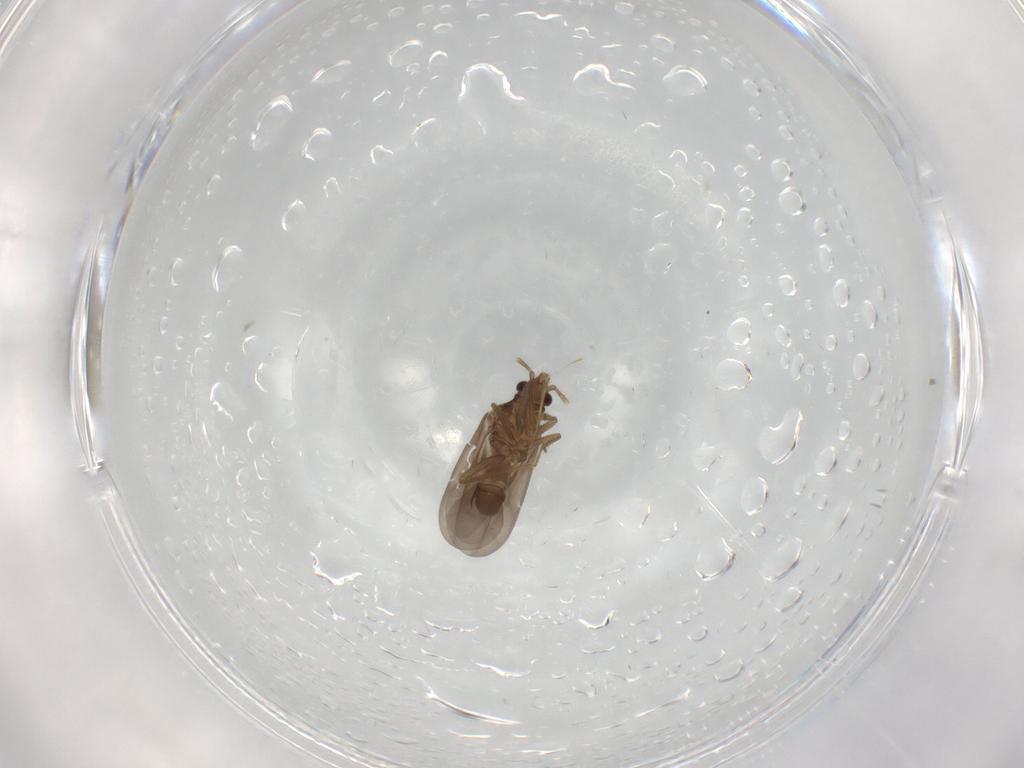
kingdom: Animalia
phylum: Arthropoda
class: Insecta
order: Hemiptera
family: Ceratocombidae
